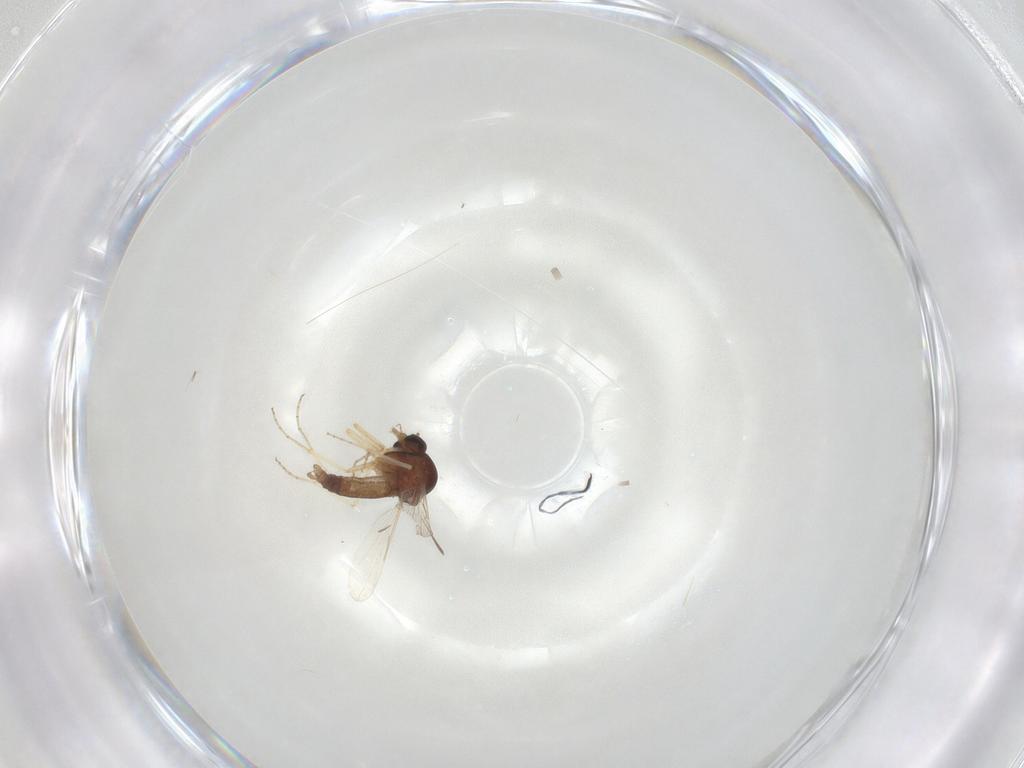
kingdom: Animalia
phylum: Arthropoda
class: Insecta
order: Diptera
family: Ceratopogonidae
